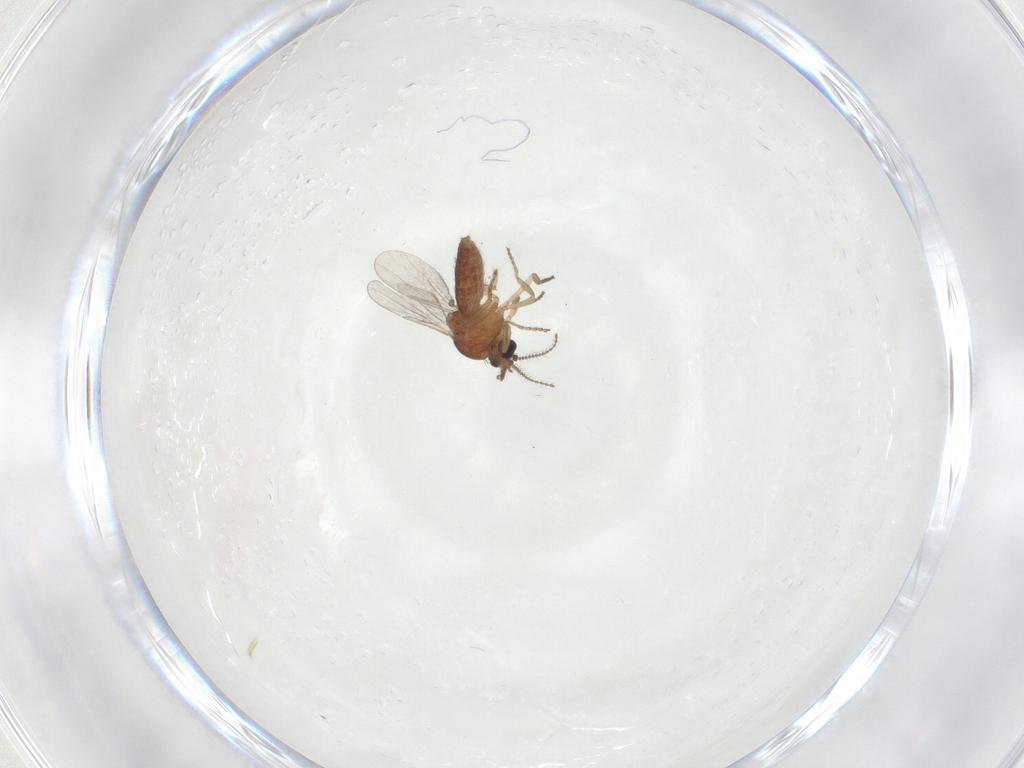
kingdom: Animalia
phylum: Arthropoda
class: Insecta
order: Diptera
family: Ceratopogonidae
